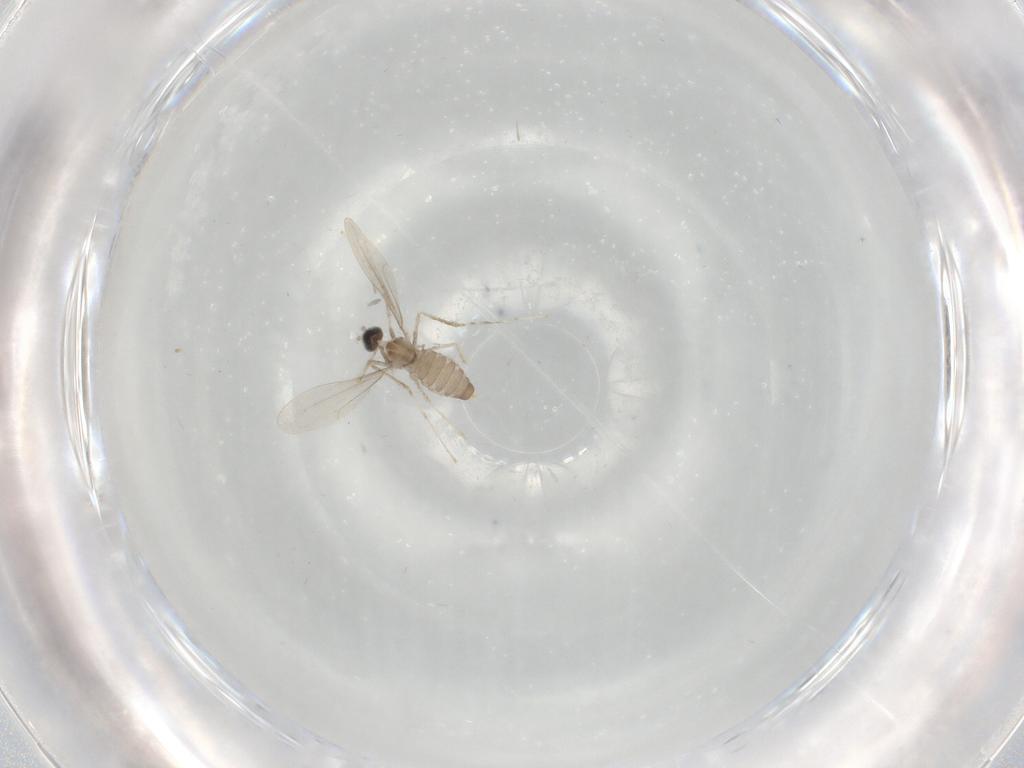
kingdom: Animalia
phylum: Arthropoda
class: Insecta
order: Diptera
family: Cecidomyiidae
